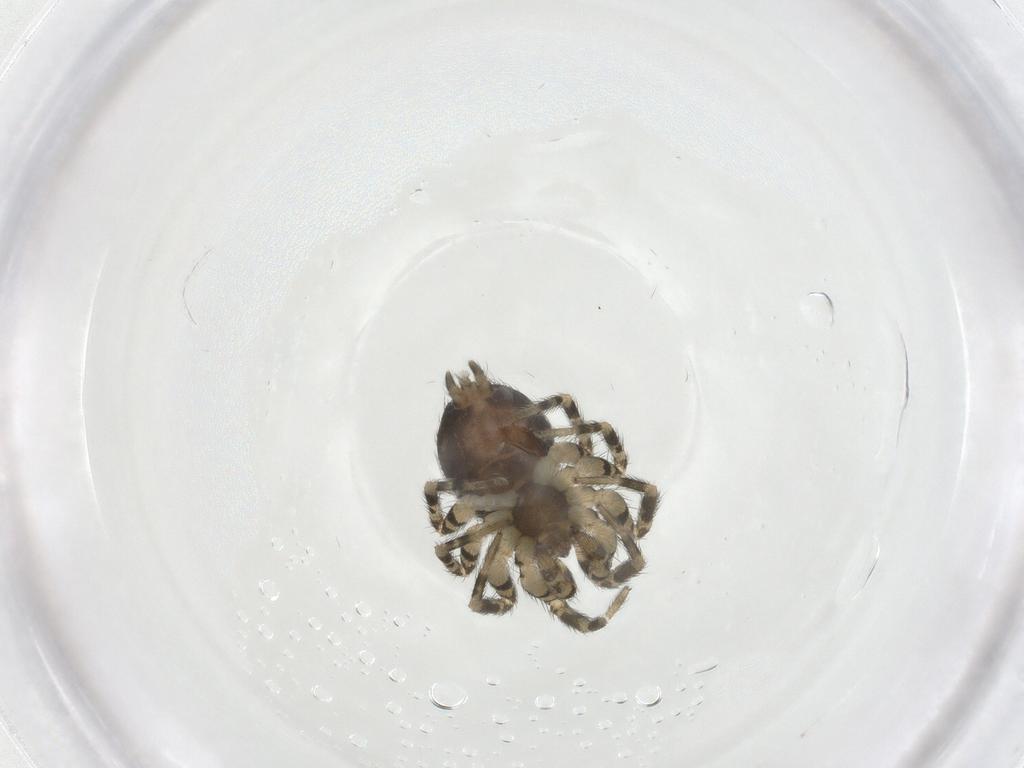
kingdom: Animalia
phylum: Arthropoda
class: Arachnida
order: Araneae
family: Oecobiidae
